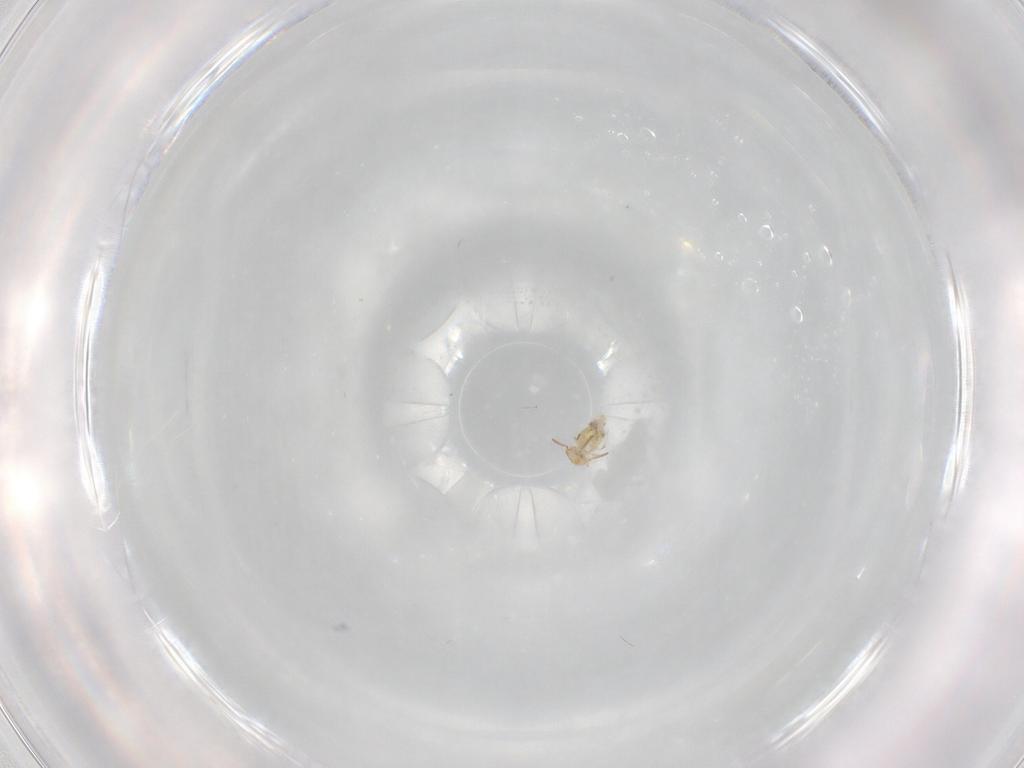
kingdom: Animalia
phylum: Arthropoda
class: Collembola
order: Symphypleona
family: Bourletiellidae
